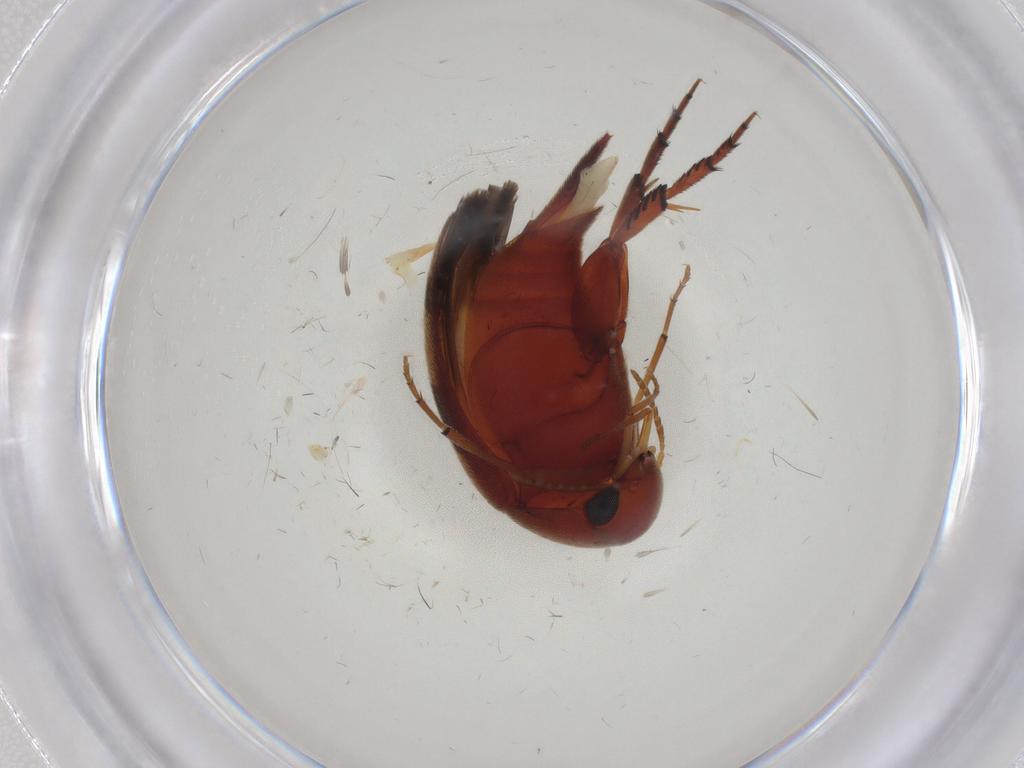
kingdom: Animalia
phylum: Arthropoda
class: Insecta
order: Coleoptera
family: Mordellidae
